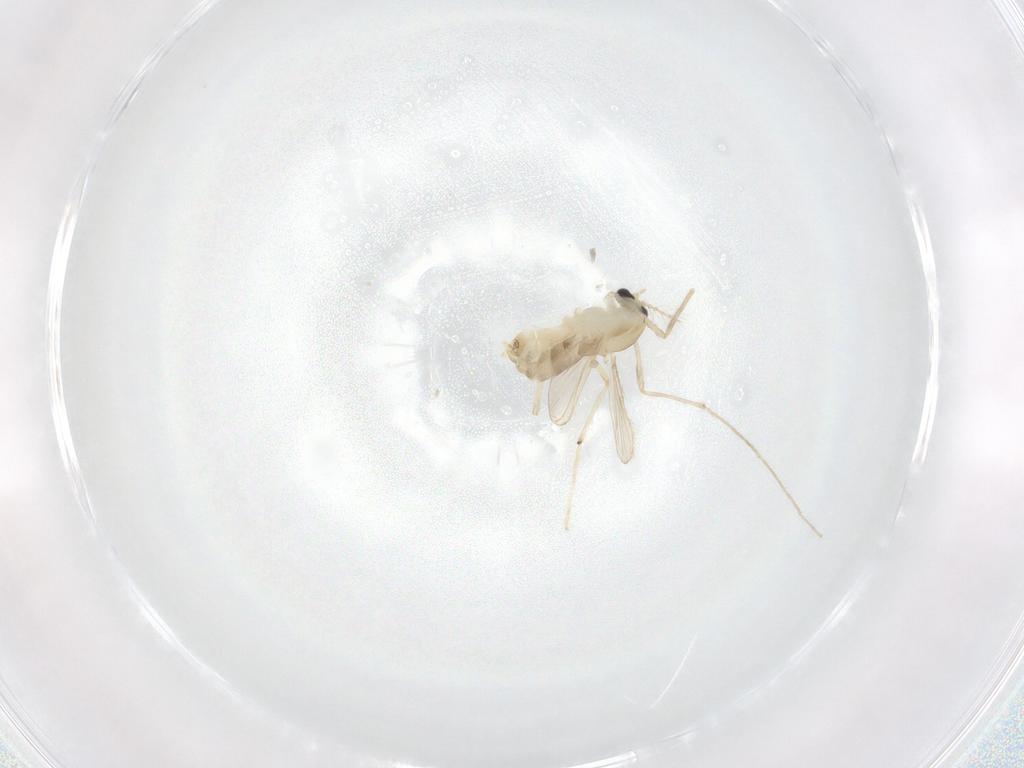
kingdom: Animalia
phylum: Arthropoda
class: Insecta
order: Diptera
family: Chironomidae
